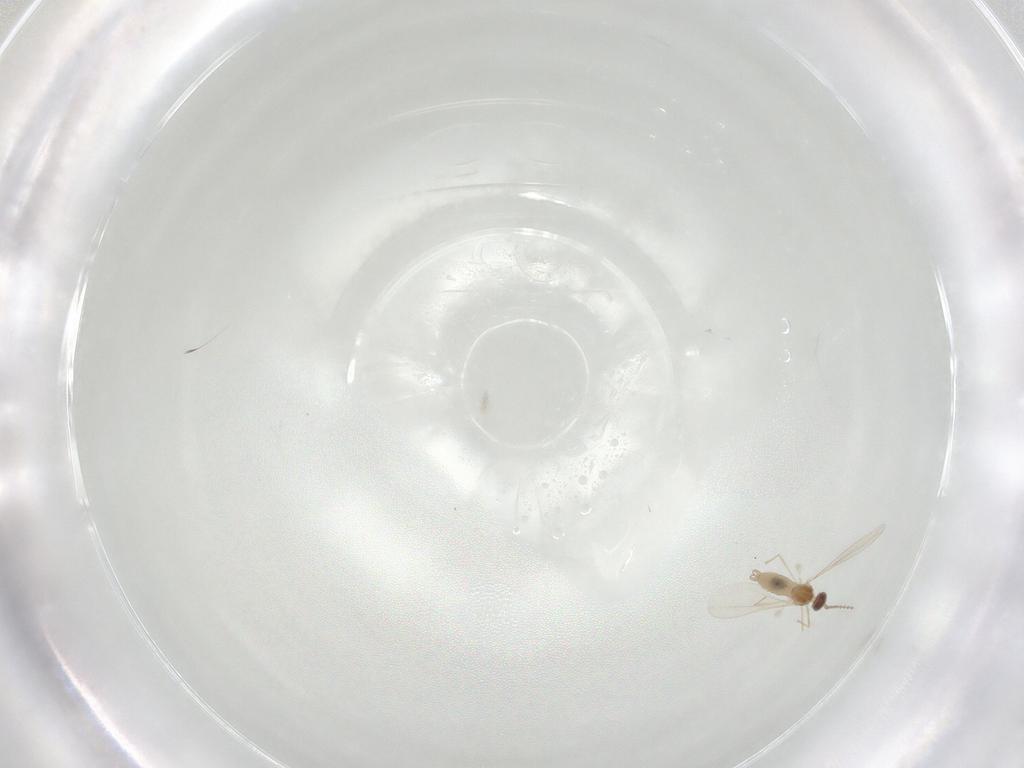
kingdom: Animalia
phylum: Arthropoda
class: Insecta
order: Diptera
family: Cecidomyiidae
